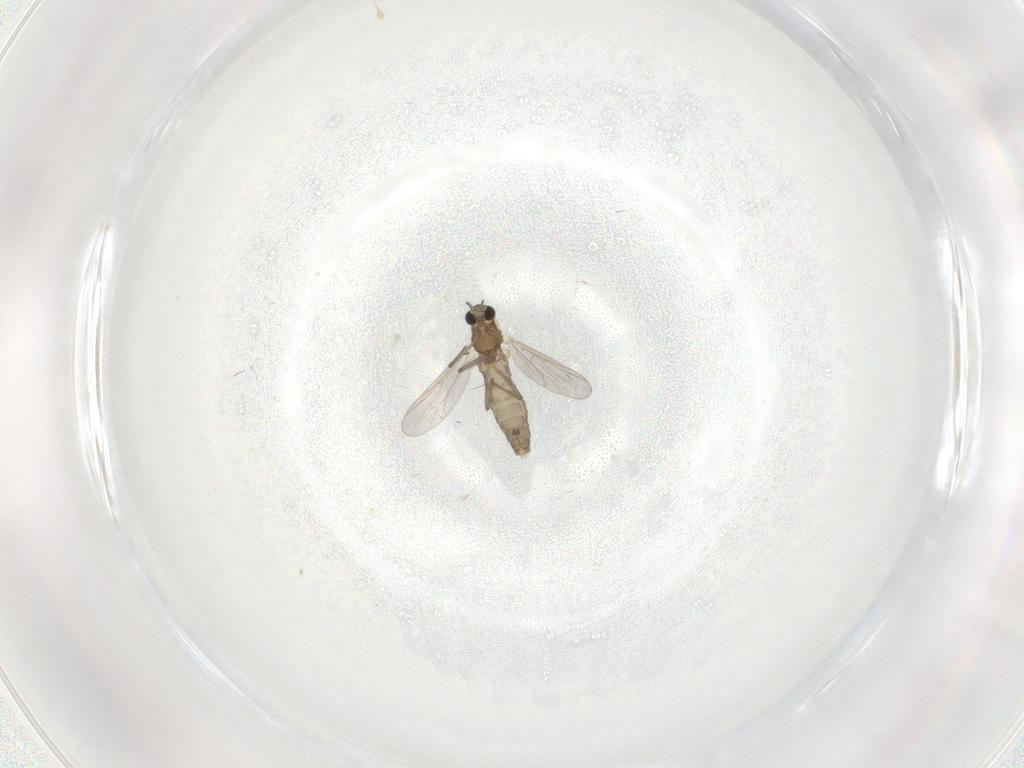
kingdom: Animalia
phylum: Arthropoda
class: Insecta
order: Diptera
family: Chironomidae
